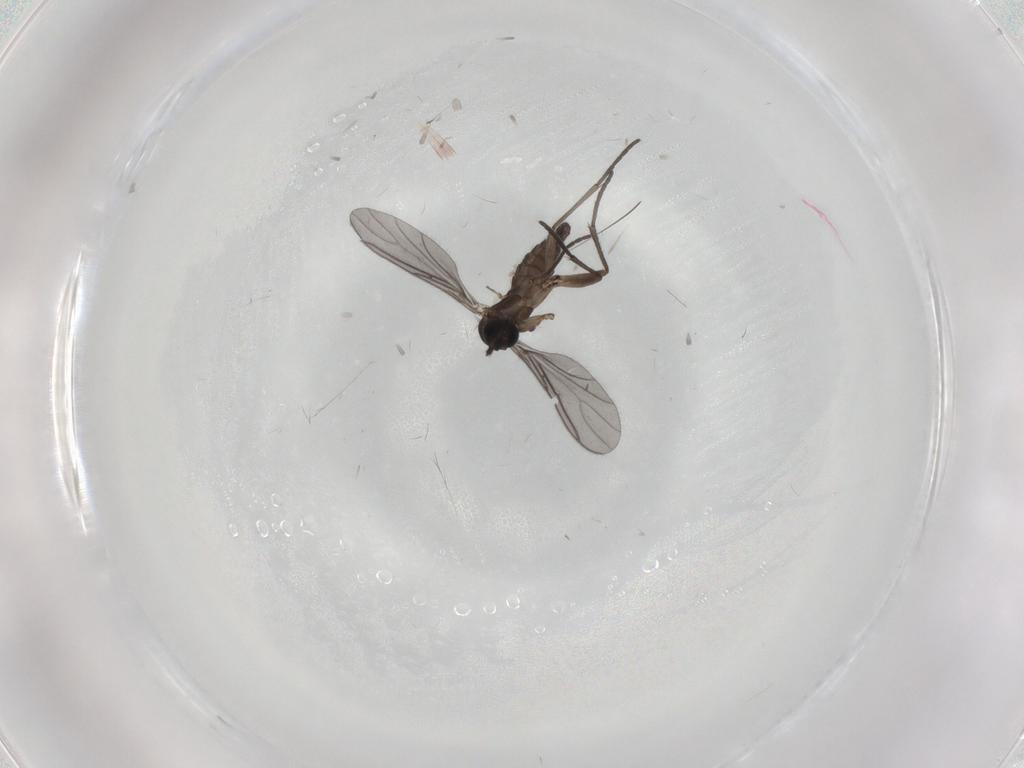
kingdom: Animalia
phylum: Arthropoda
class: Insecta
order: Diptera
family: Sciaridae
